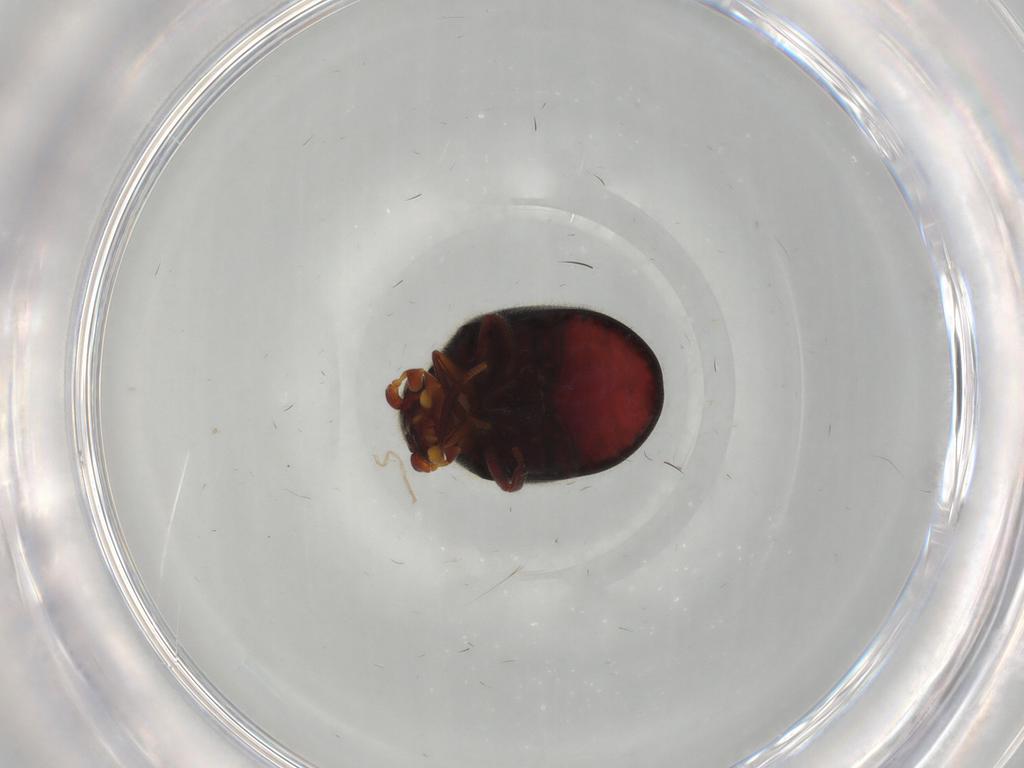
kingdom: Animalia
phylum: Arthropoda
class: Insecta
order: Coleoptera
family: Ptinidae
